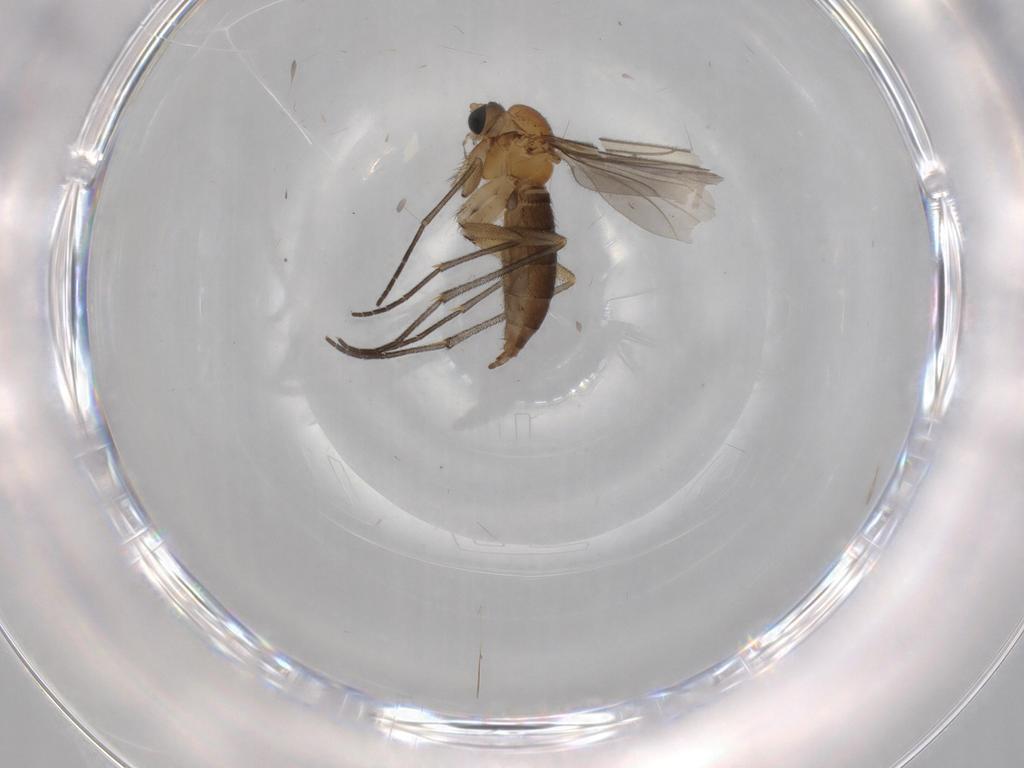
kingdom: Animalia
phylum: Arthropoda
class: Insecta
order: Diptera
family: Sciaridae
